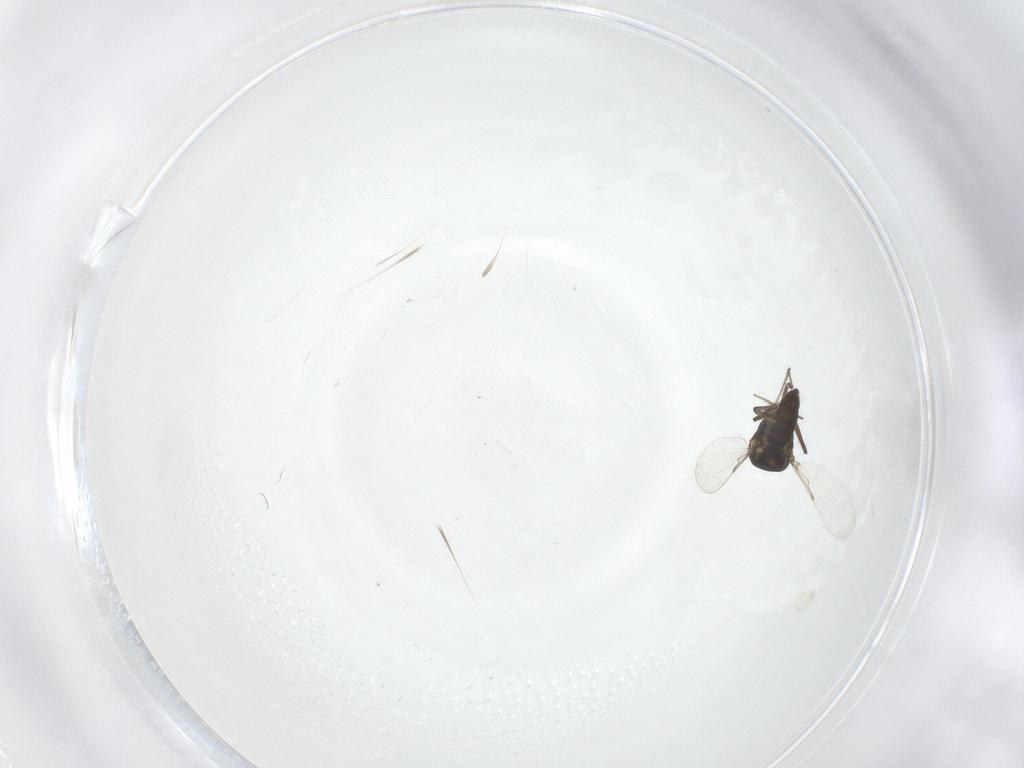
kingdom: Animalia
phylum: Arthropoda
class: Insecta
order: Diptera
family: Ceratopogonidae
